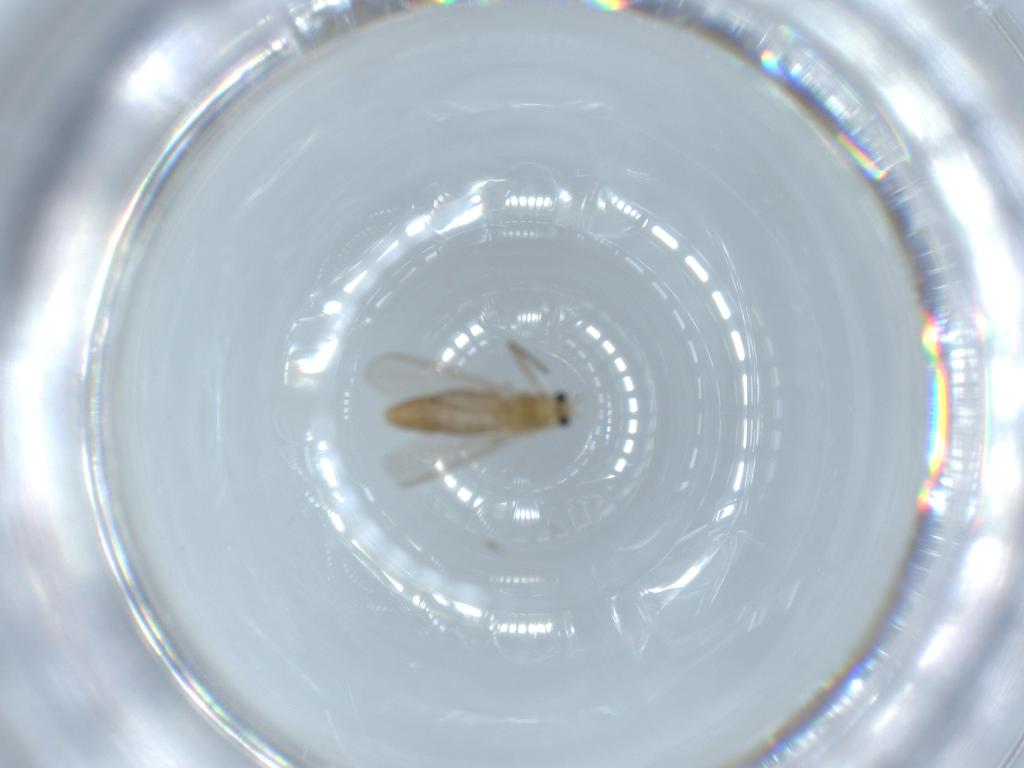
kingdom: Animalia
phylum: Arthropoda
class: Insecta
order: Diptera
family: Chironomidae
